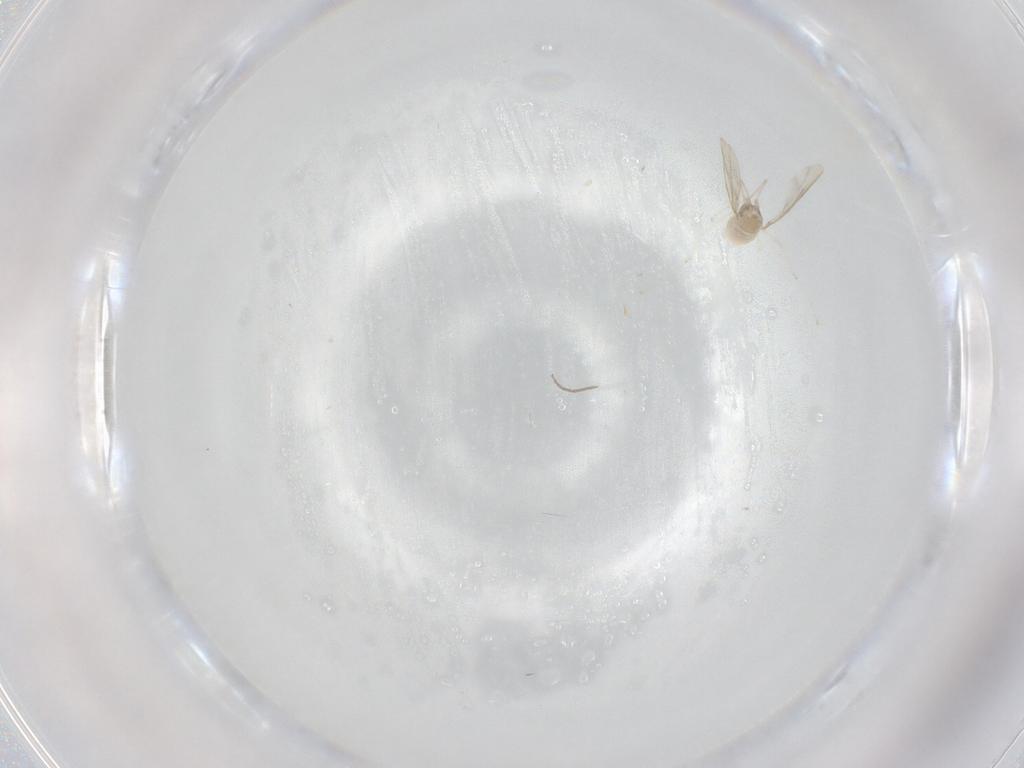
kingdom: Animalia
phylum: Arthropoda
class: Insecta
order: Diptera
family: Chironomidae
